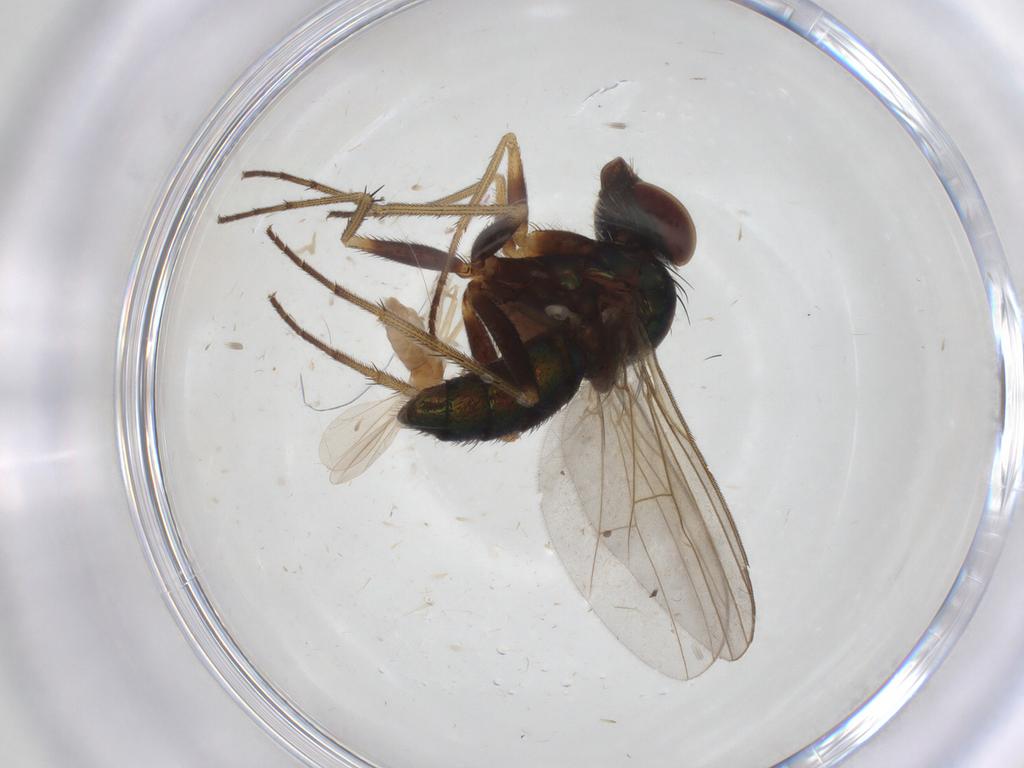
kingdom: Animalia
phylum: Arthropoda
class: Insecta
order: Diptera
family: Dolichopodidae
